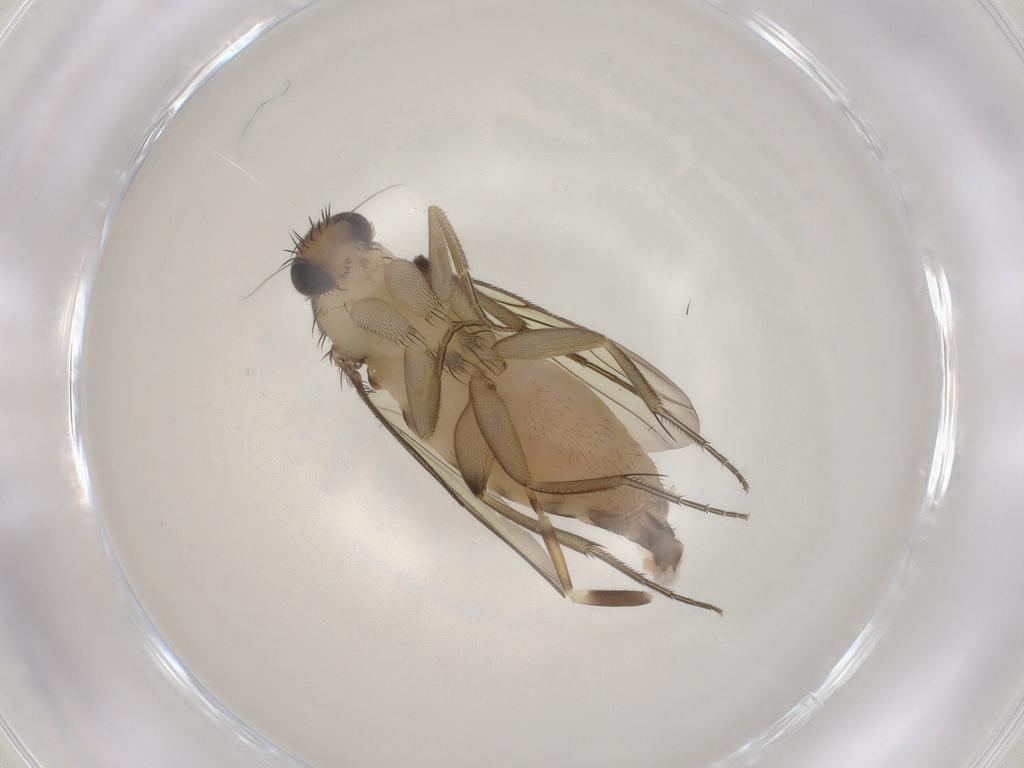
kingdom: Animalia
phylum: Arthropoda
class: Insecta
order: Diptera
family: Phoridae
